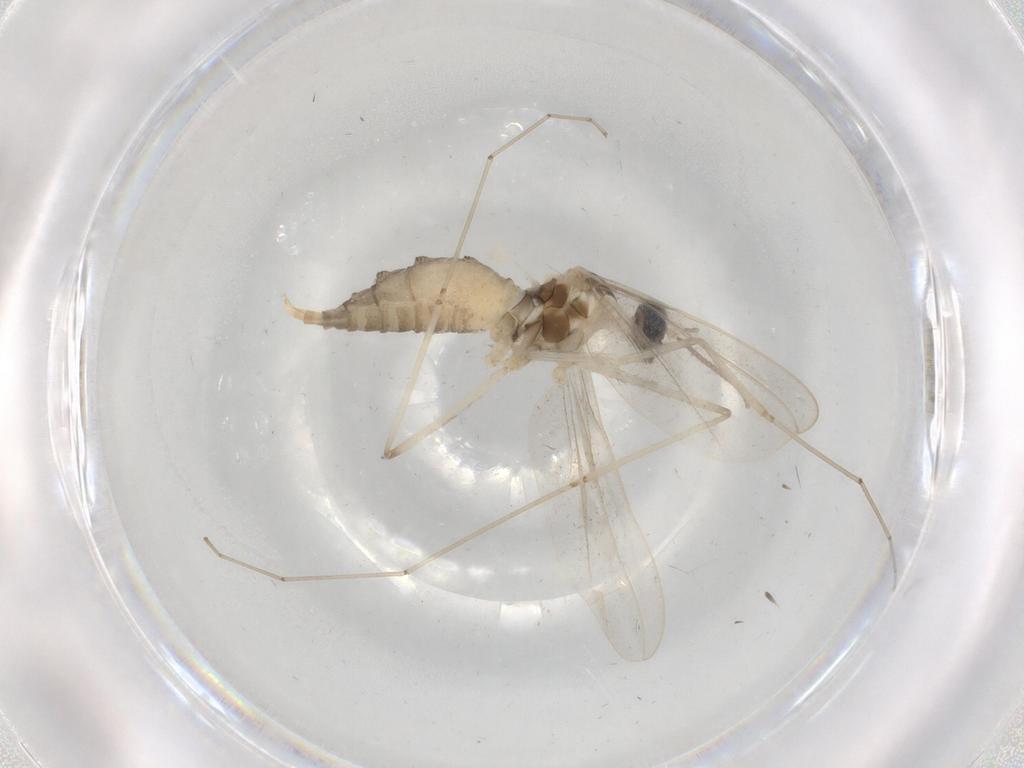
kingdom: Animalia
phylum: Arthropoda
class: Insecta
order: Diptera
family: Cecidomyiidae
